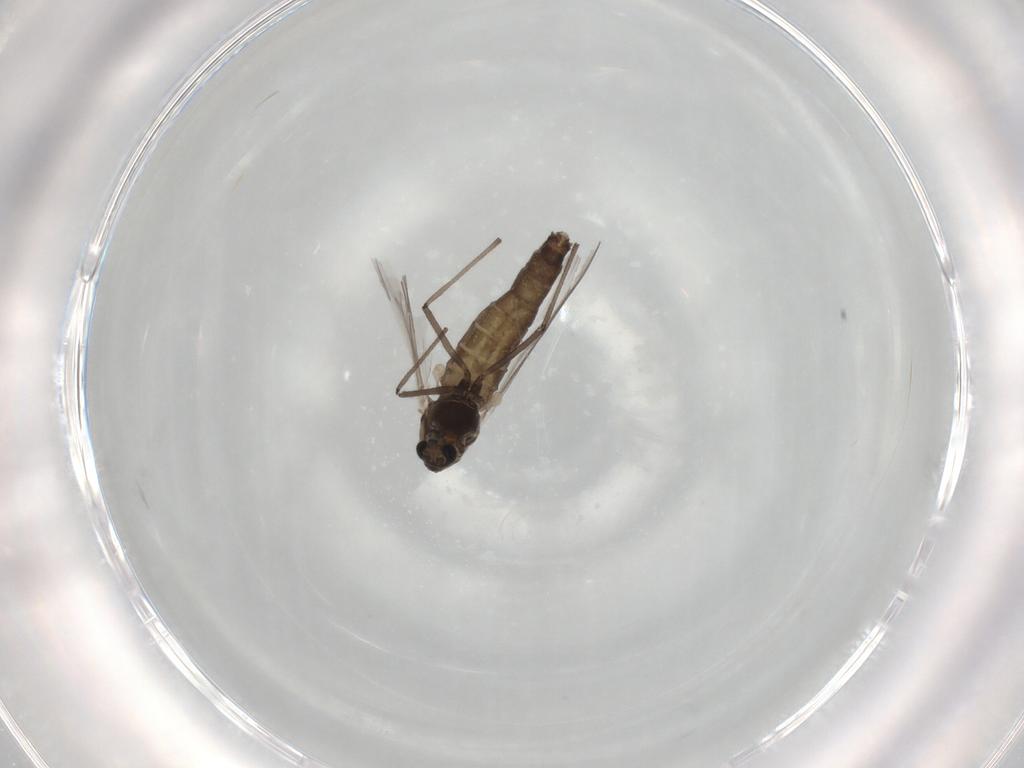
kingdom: Animalia
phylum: Arthropoda
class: Insecta
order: Diptera
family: Chironomidae
